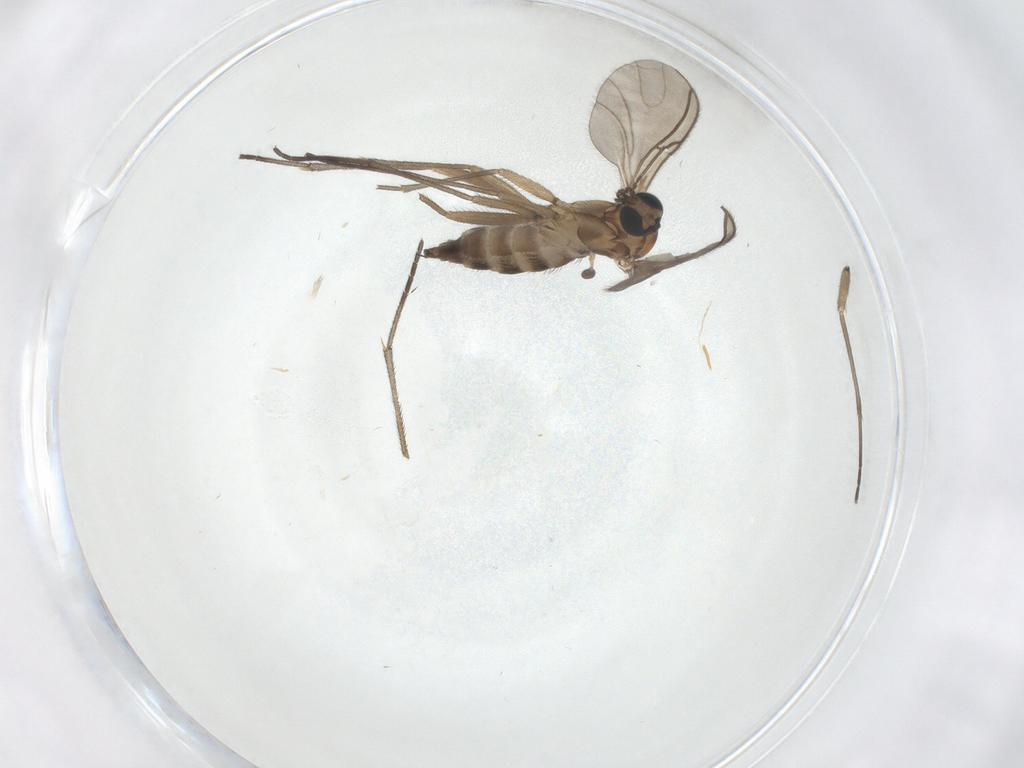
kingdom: Animalia
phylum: Arthropoda
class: Insecta
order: Diptera
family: Sciaridae
